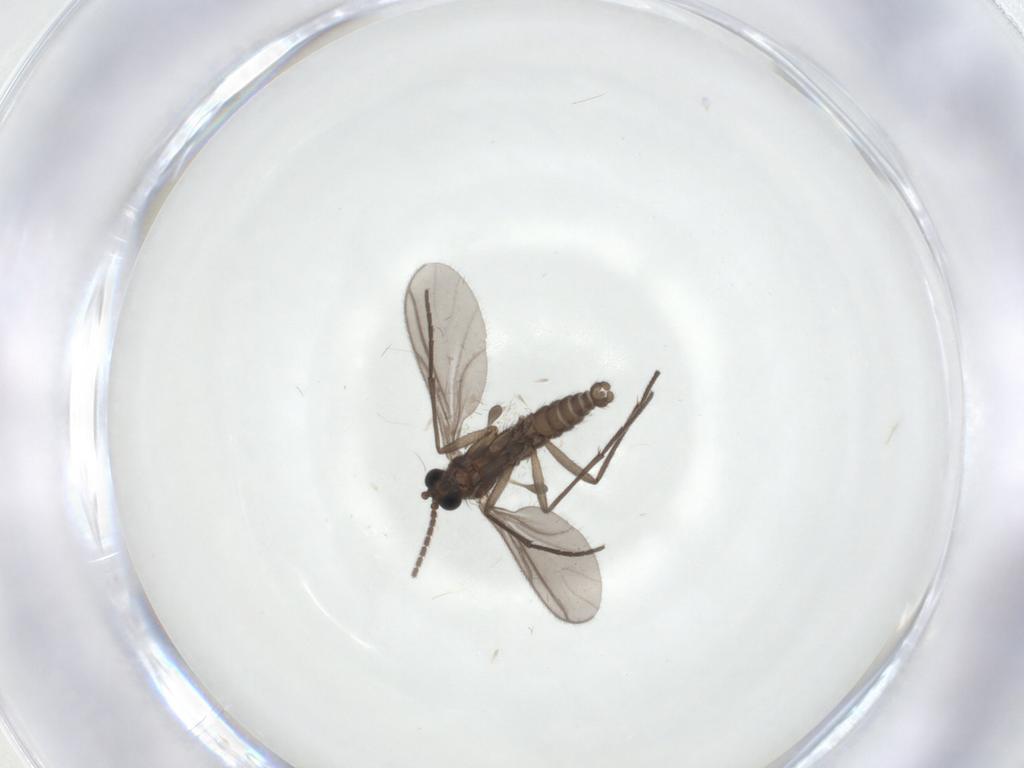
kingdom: Animalia
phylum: Arthropoda
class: Insecta
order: Diptera
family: Sciaridae
